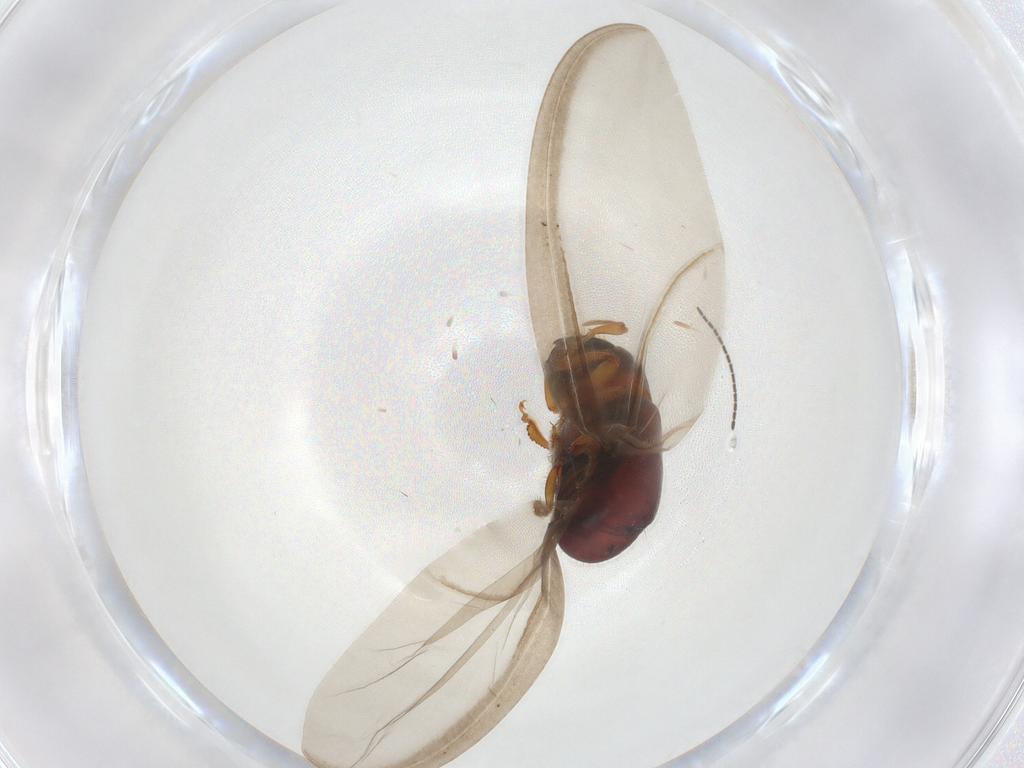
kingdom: Animalia
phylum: Arthropoda
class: Insecta
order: Coleoptera
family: Curculionidae
